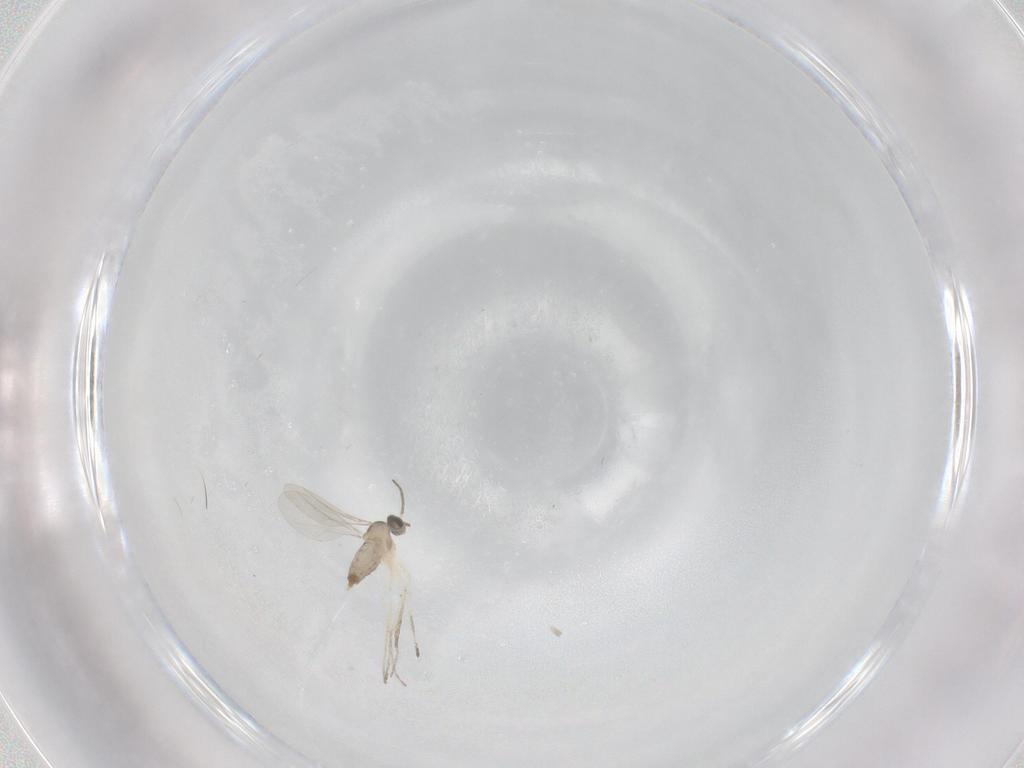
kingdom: Animalia
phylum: Arthropoda
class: Insecta
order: Diptera
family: Cecidomyiidae
